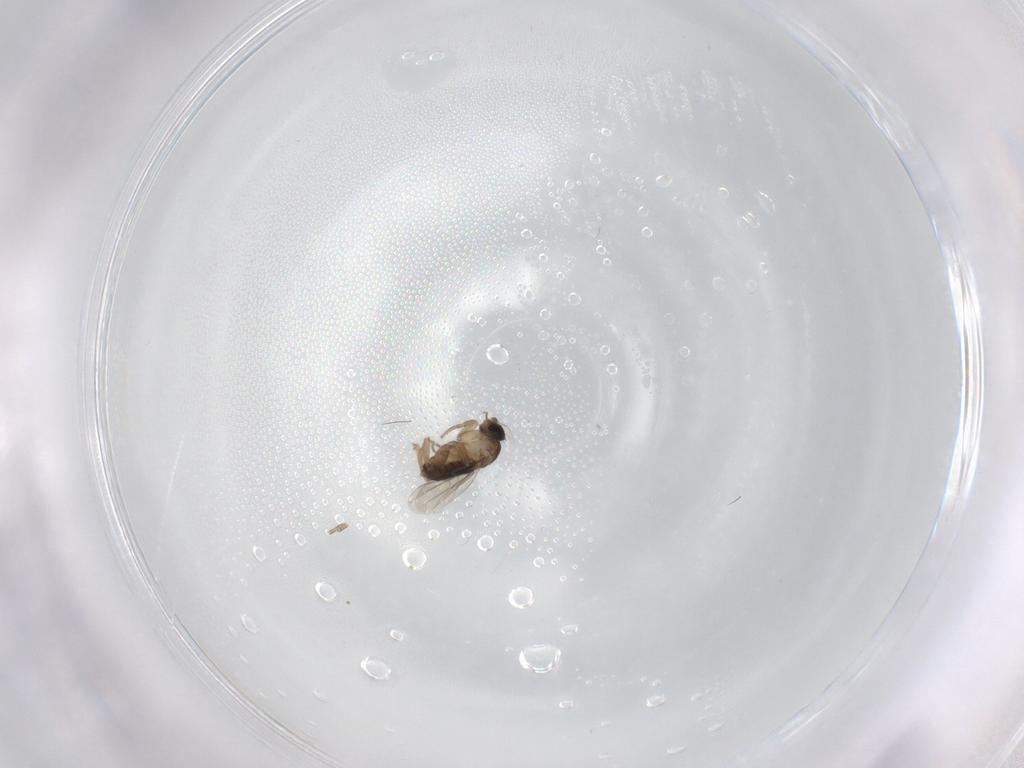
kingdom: Animalia
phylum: Arthropoda
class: Insecta
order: Diptera
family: Phoridae
